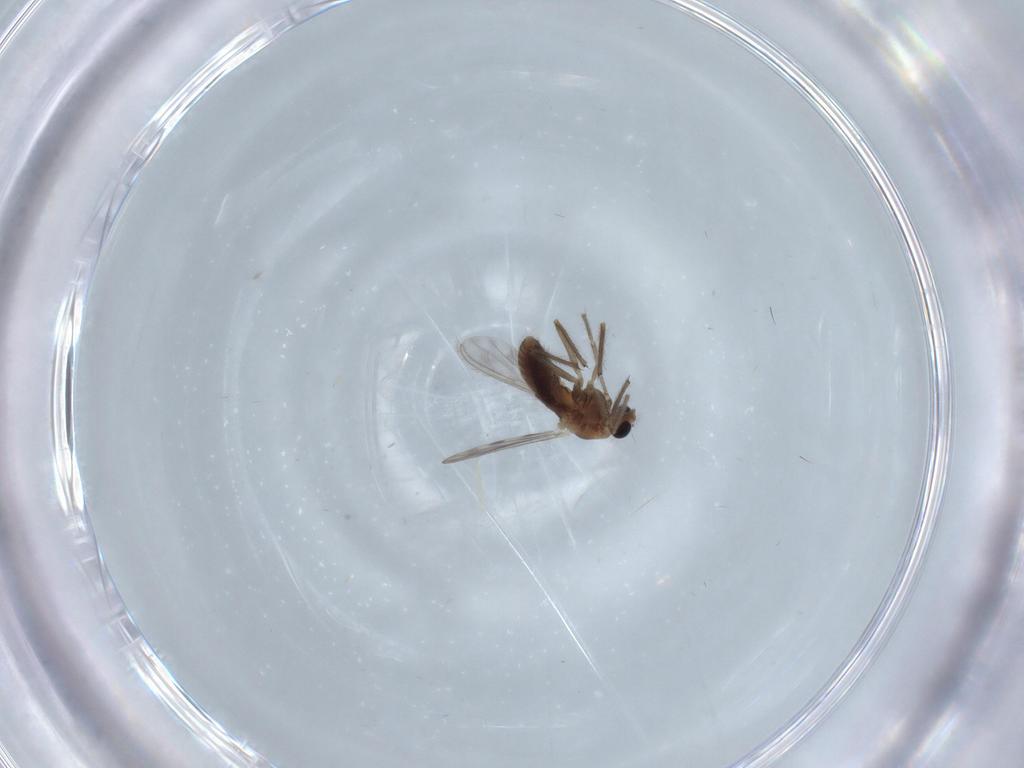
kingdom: Animalia
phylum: Arthropoda
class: Insecta
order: Diptera
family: Chironomidae
